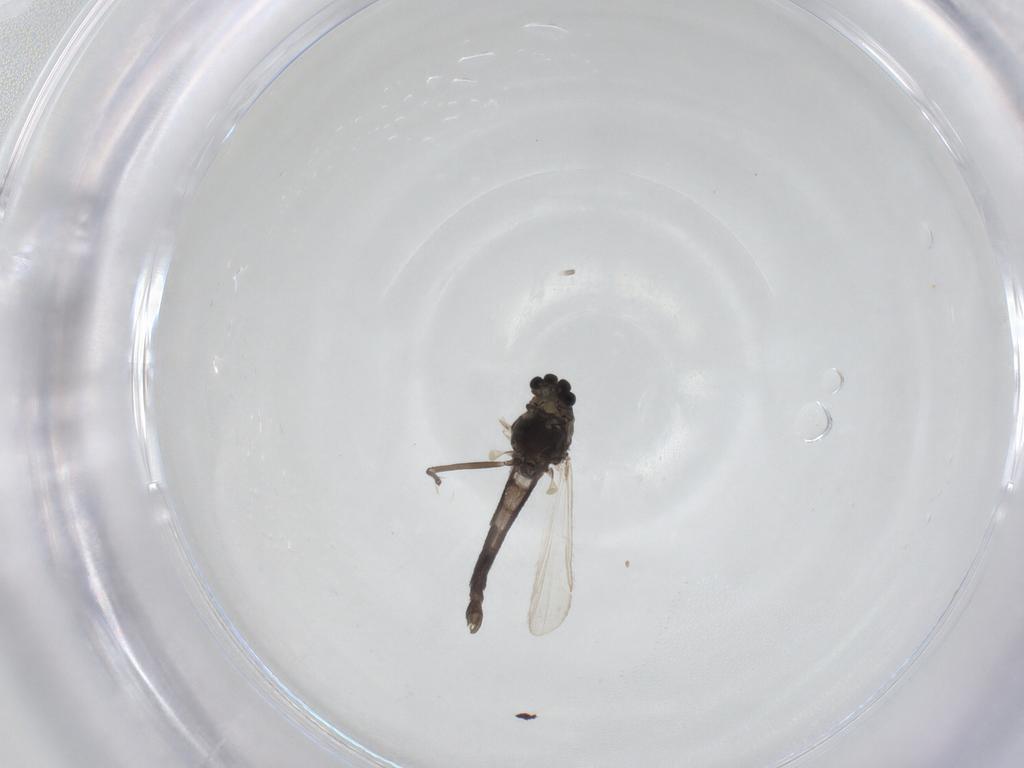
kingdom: Animalia
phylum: Arthropoda
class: Insecta
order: Diptera
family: Chironomidae
